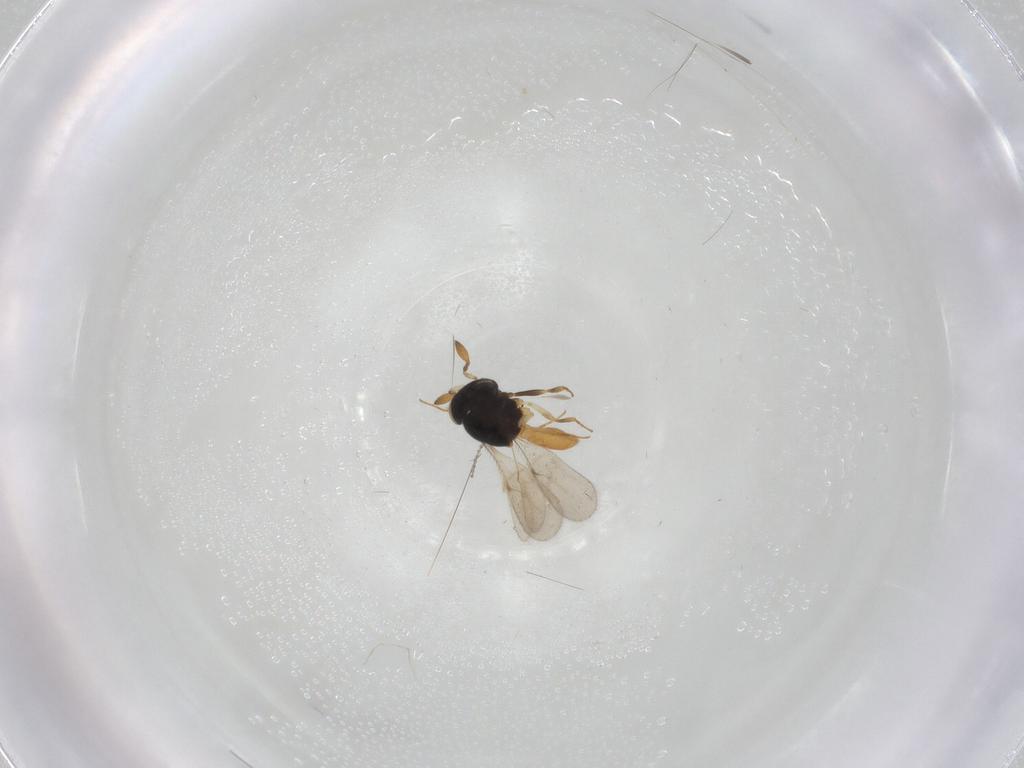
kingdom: Animalia
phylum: Arthropoda
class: Insecta
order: Hymenoptera
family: Scelionidae
